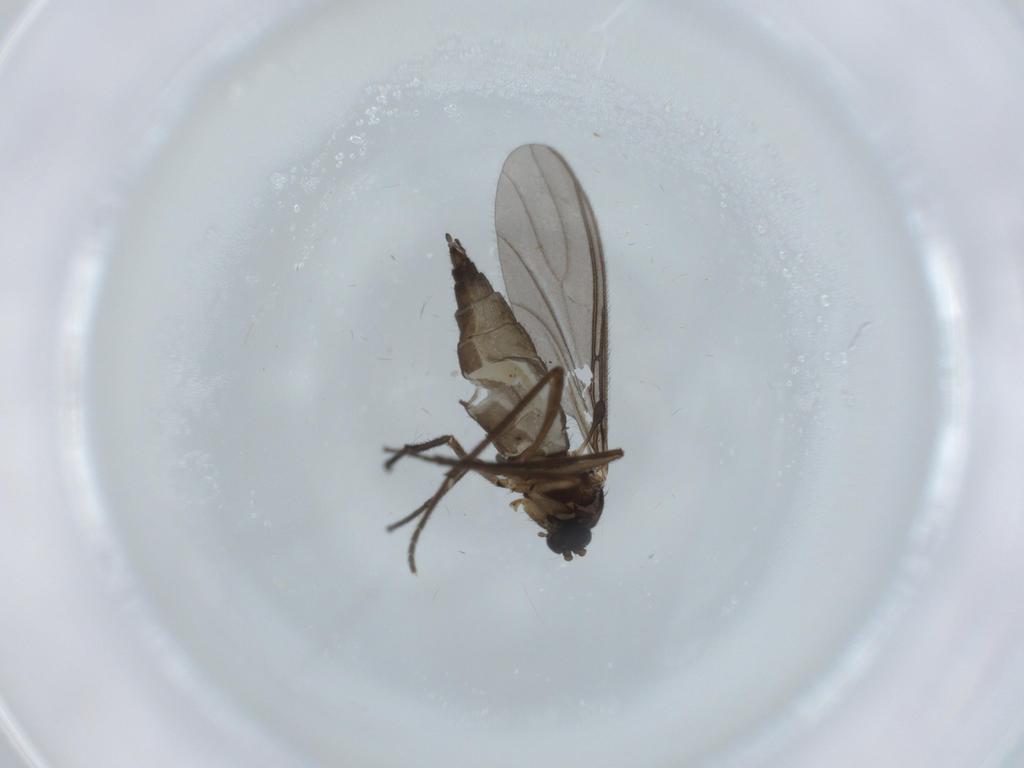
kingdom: Animalia
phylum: Arthropoda
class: Insecta
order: Diptera
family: Sciaridae
